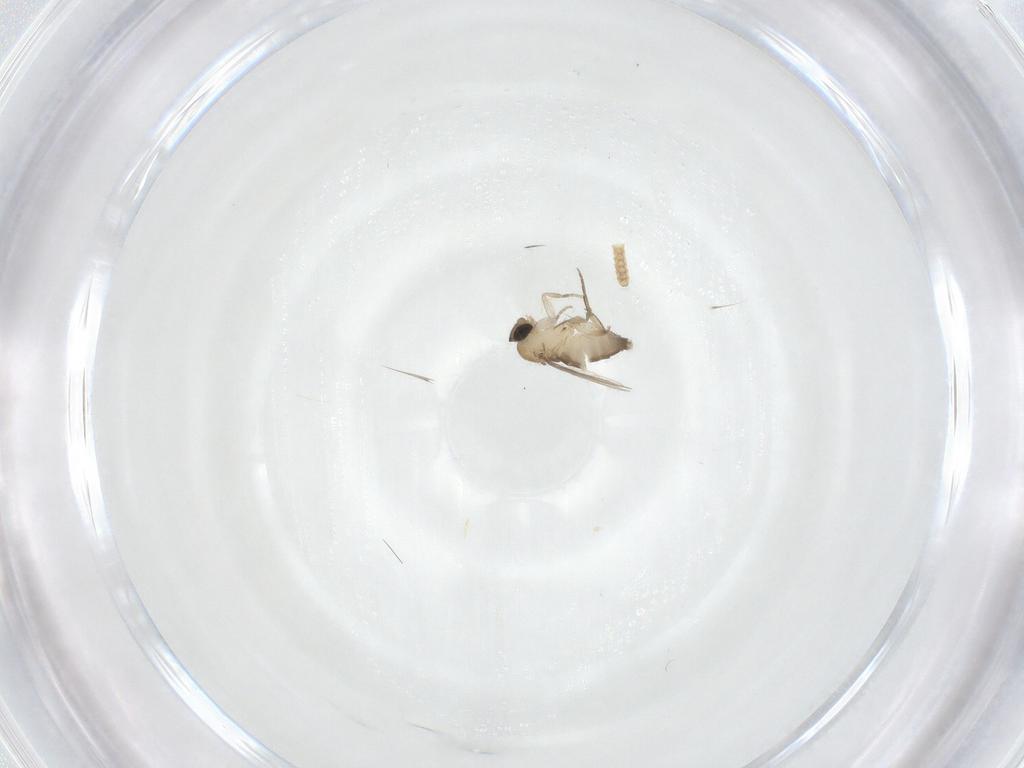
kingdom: Animalia
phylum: Arthropoda
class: Insecta
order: Diptera
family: Phoridae
